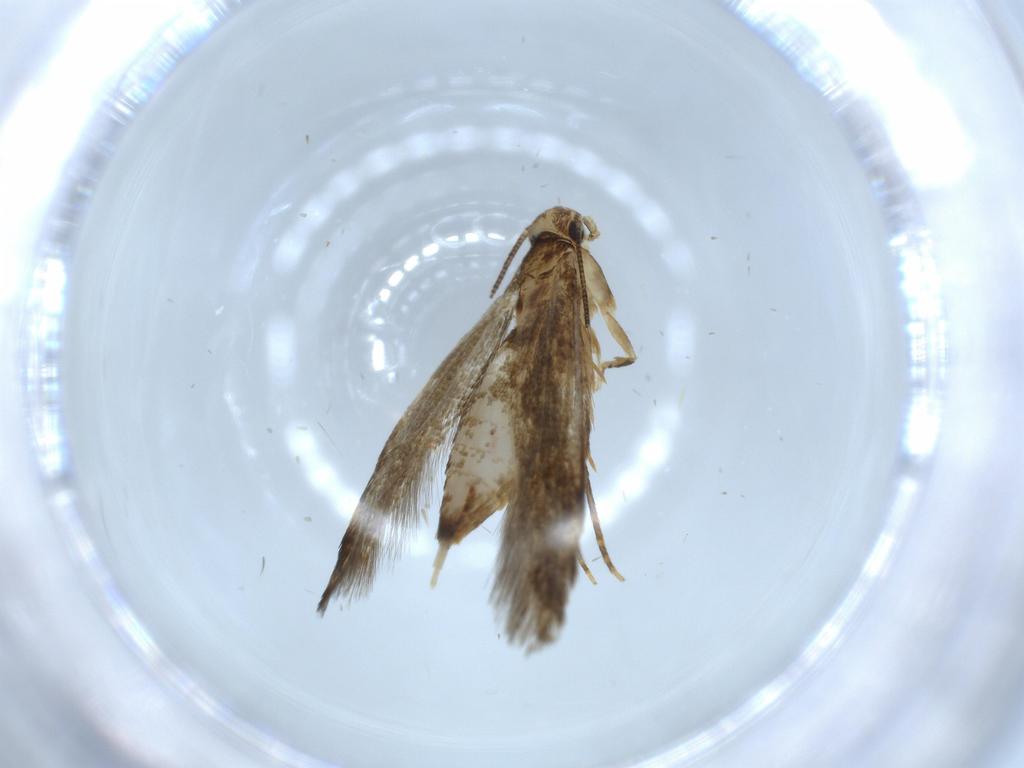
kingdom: Animalia
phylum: Arthropoda
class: Insecta
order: Lepidoptera
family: Tineidae
